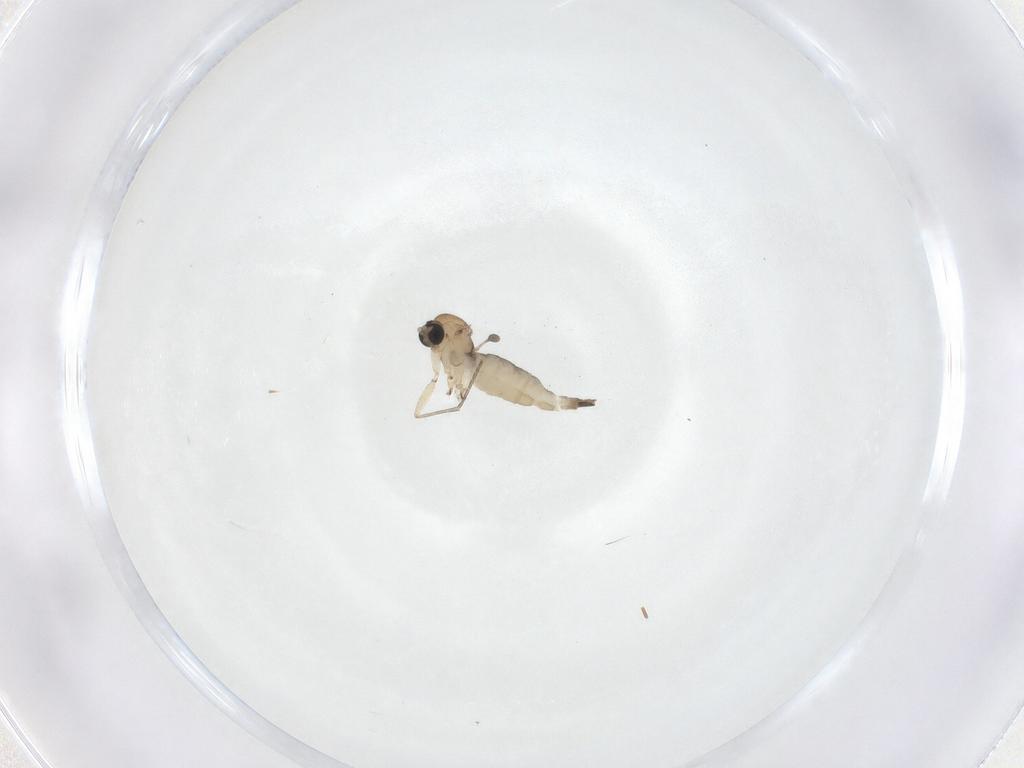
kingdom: Animalia
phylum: Arthropoda
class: Insecta
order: Diptera
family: Sciaridae
